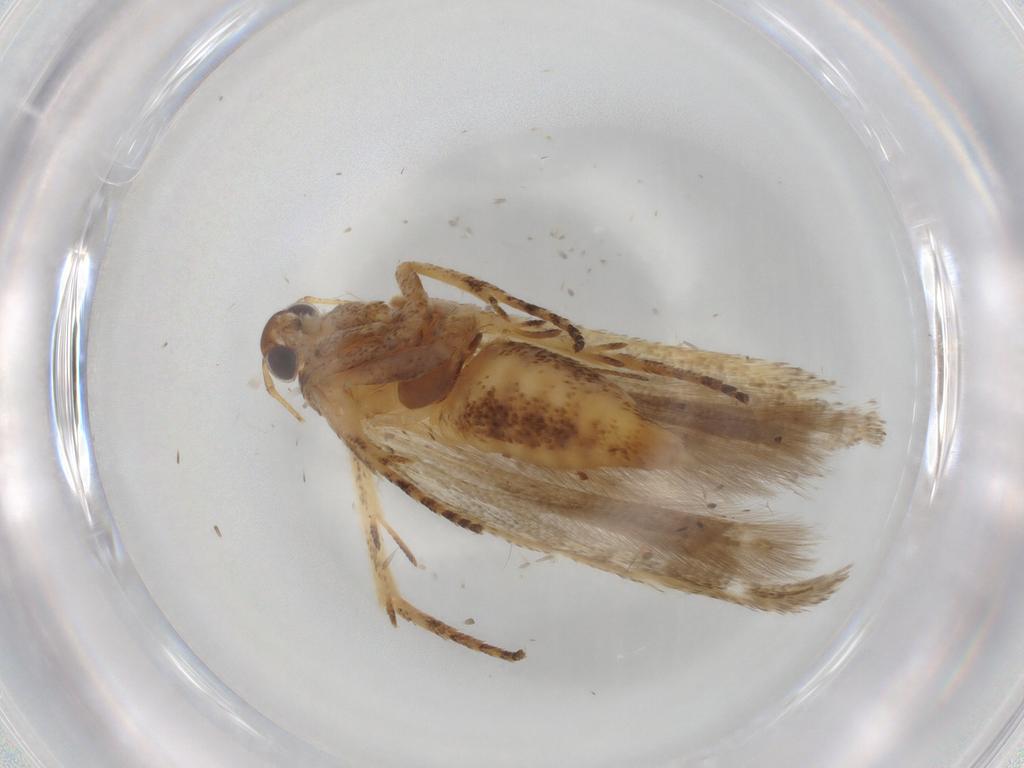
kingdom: Animalia
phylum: Arthropoda
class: Insecta
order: Lepidoptera
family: Gelechiidae
